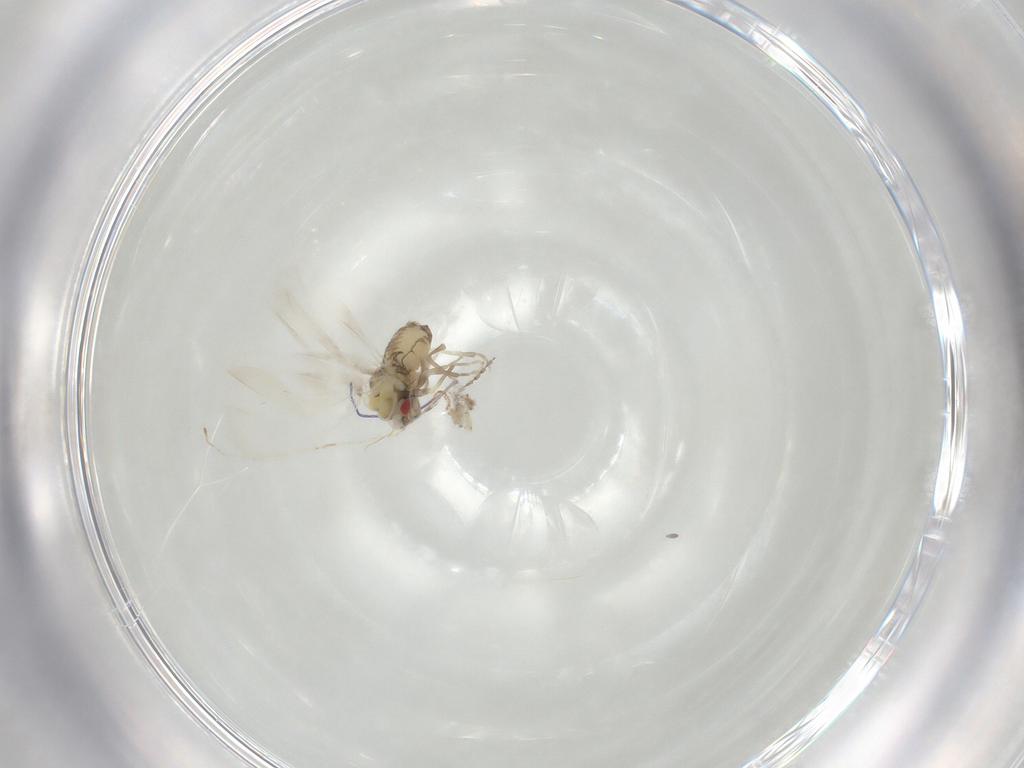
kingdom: Animalia
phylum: Arthropoda
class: Insecta
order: Hemiptera
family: Aleyrodidae
